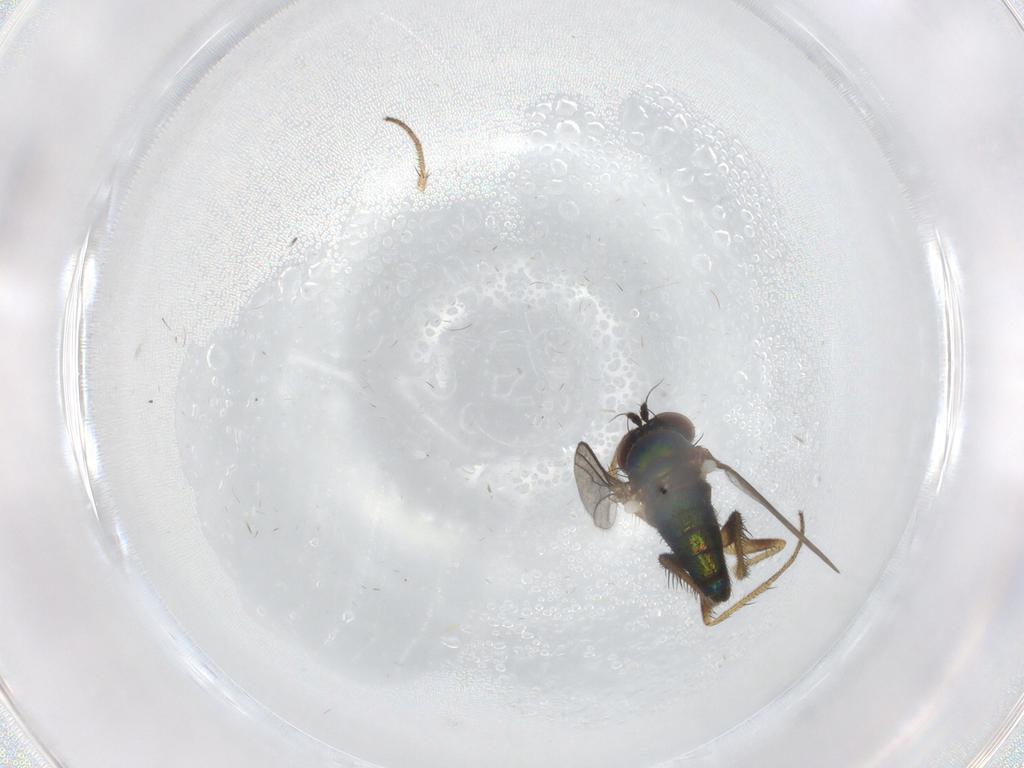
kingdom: Animalia
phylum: Arthropoda
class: Insecta
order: Diptera
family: Dolichopodidae
